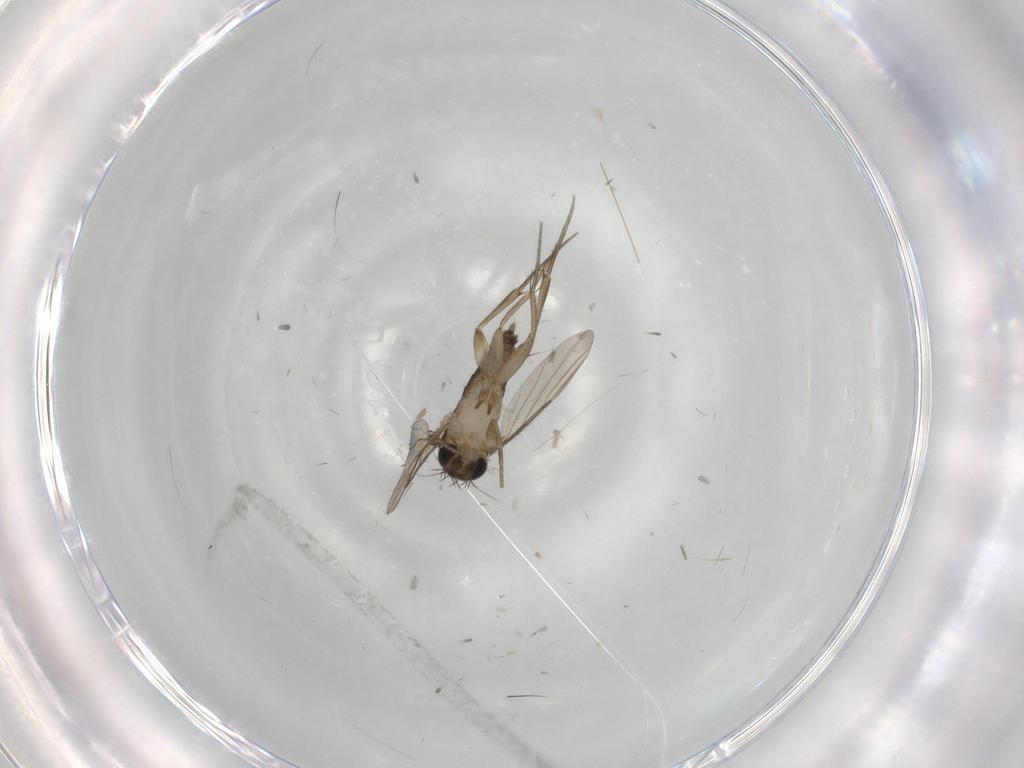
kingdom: Animalia
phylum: Arthropoda
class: Insecta
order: Diptera
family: Phoridae
